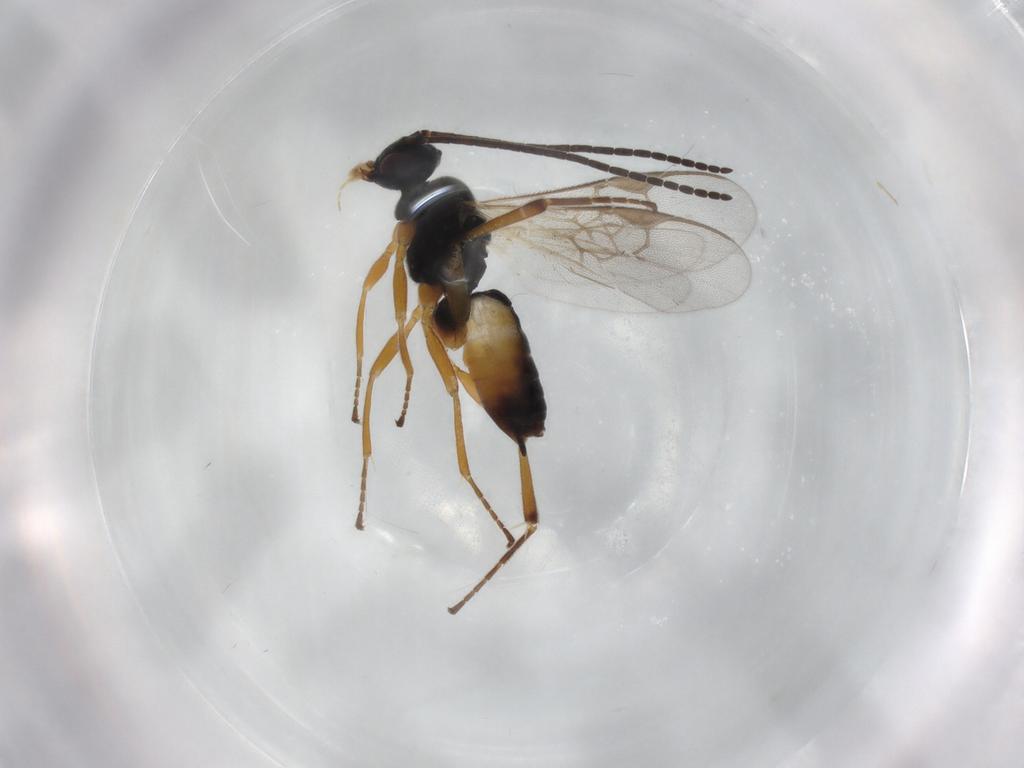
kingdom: Animalia
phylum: Arthropoda
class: Insecta
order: Hymenoptera
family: Braconidae
